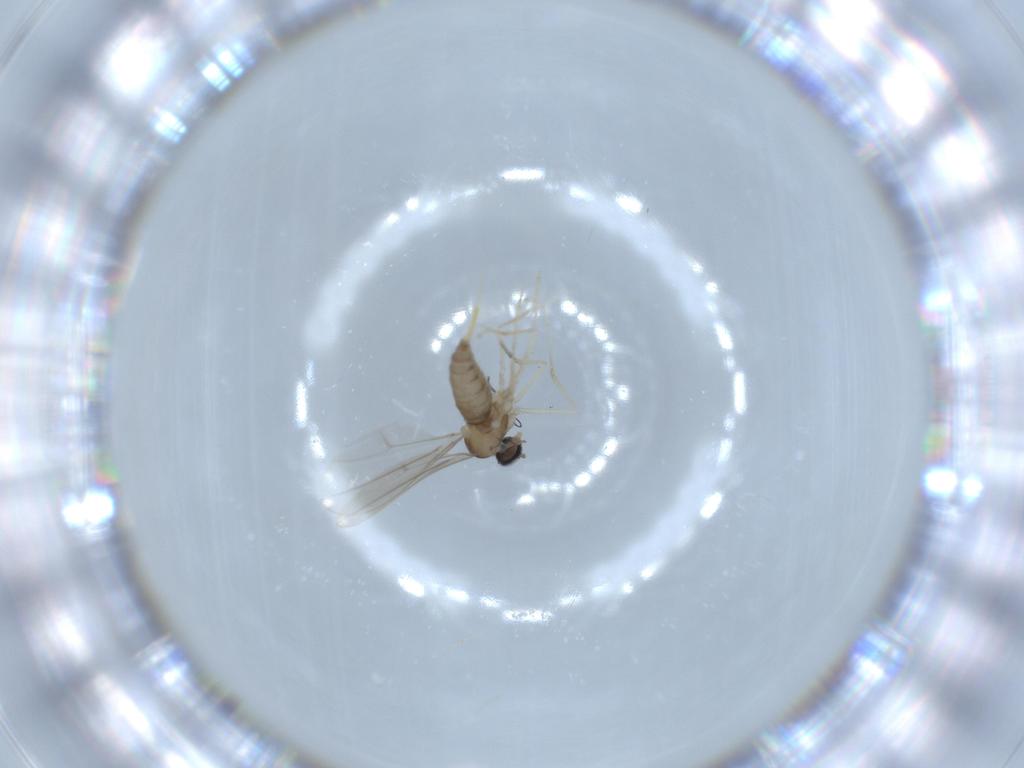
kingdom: Animalia
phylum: Arthropoda
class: Insecta
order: Diptera
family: Cecidomyiidae
